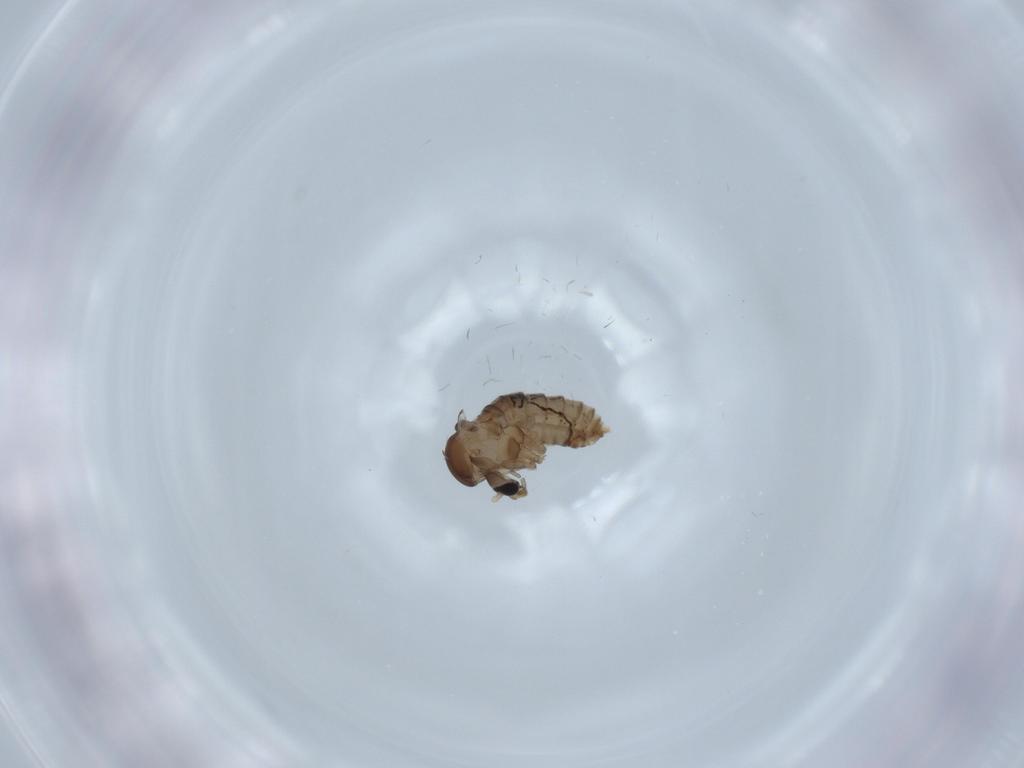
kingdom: Animalia
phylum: Arthropoda
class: Insecta
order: Diptera
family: Psychodidae
